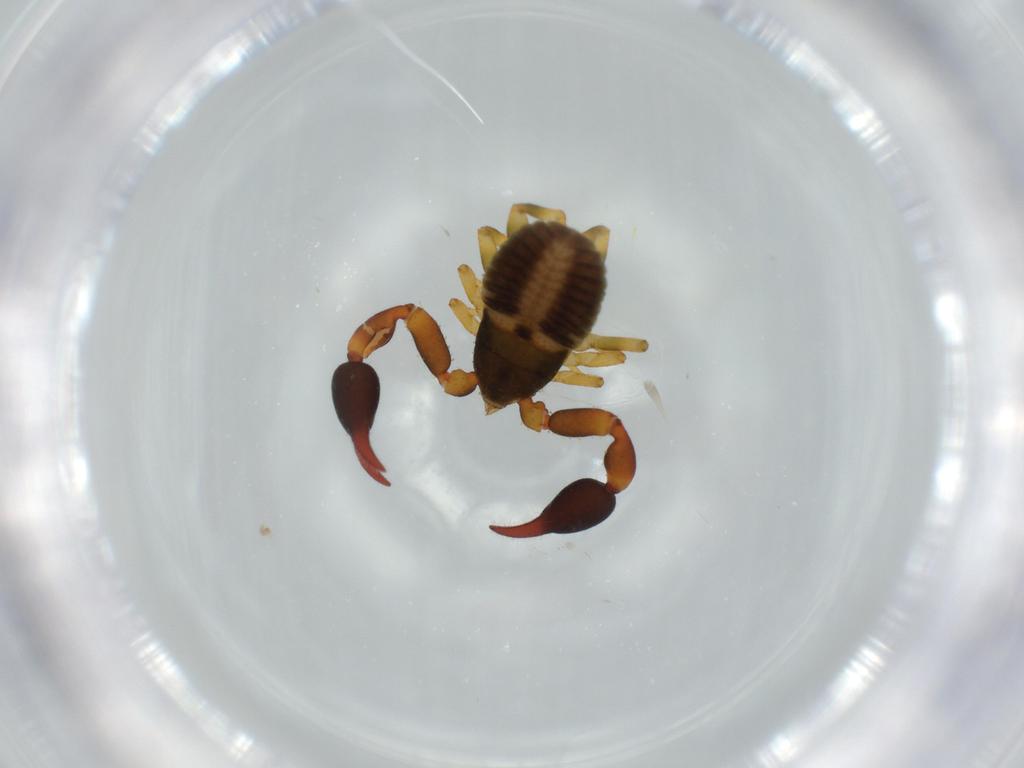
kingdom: Animalia
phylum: Arthropoda
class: Arachnida
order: Pseudoscorpiones
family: Chernetidae
